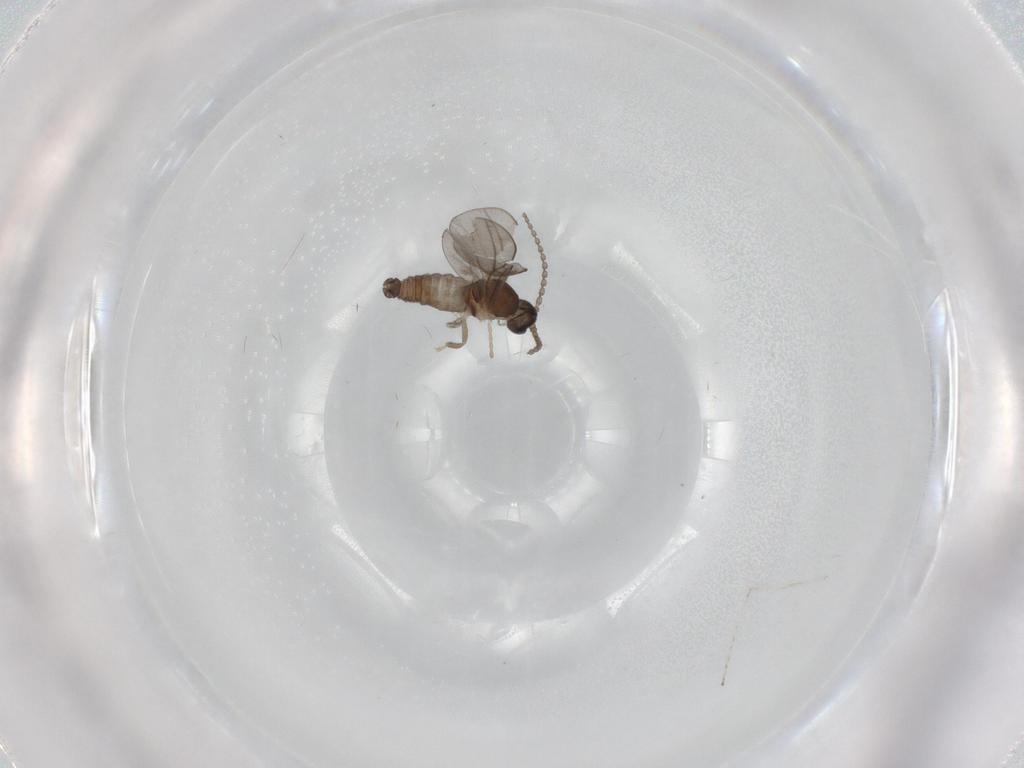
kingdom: Animalia
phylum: Arthropoda
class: Insecta
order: Diptera
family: Cecidomyiidae
